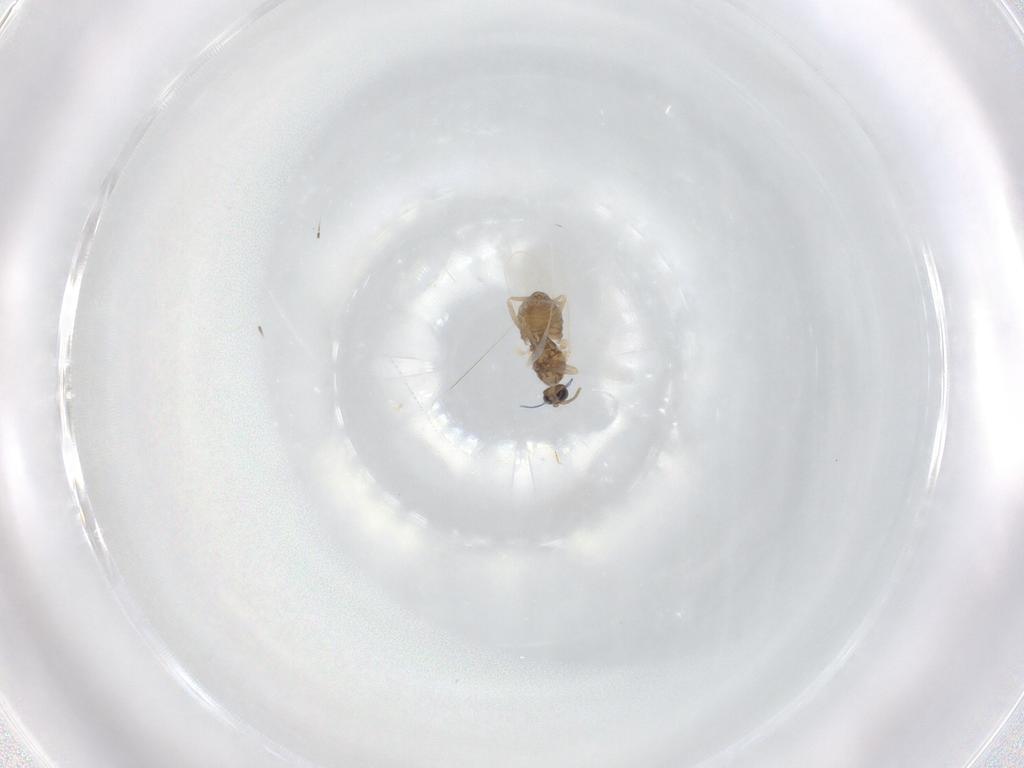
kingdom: Animalia
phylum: Arthropoda
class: Insecta
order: Diptera
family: Cecidomyiidae
